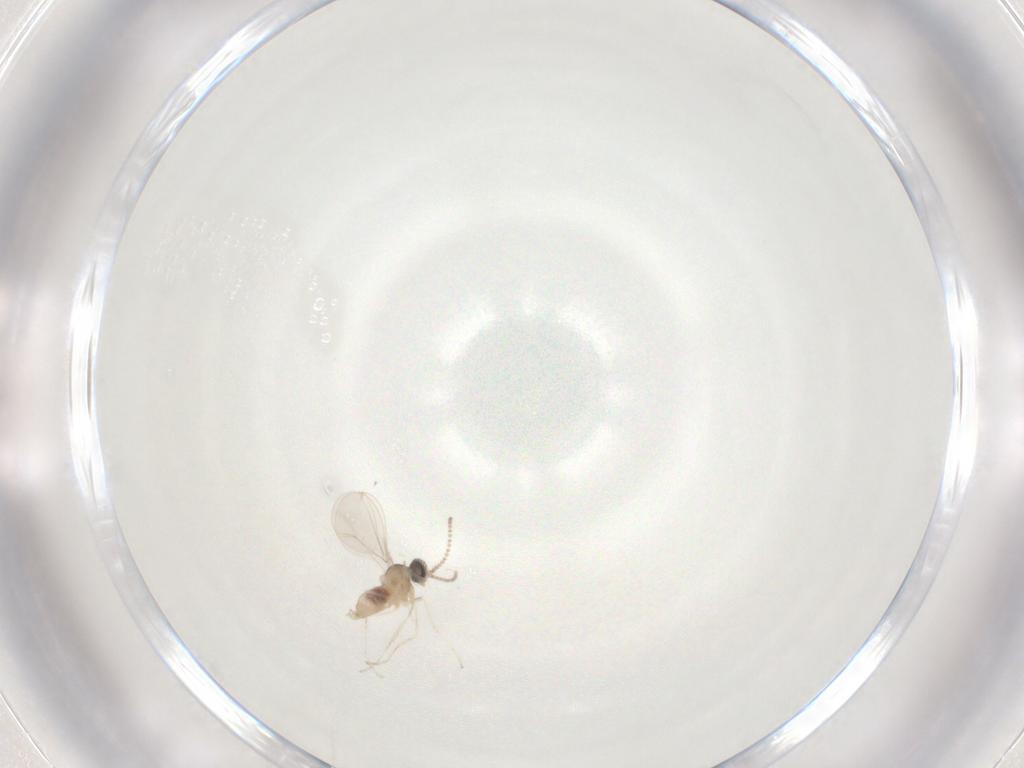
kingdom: Animalia
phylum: Arthropoda
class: Insecta
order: Diptera
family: Cecidomyiidae
